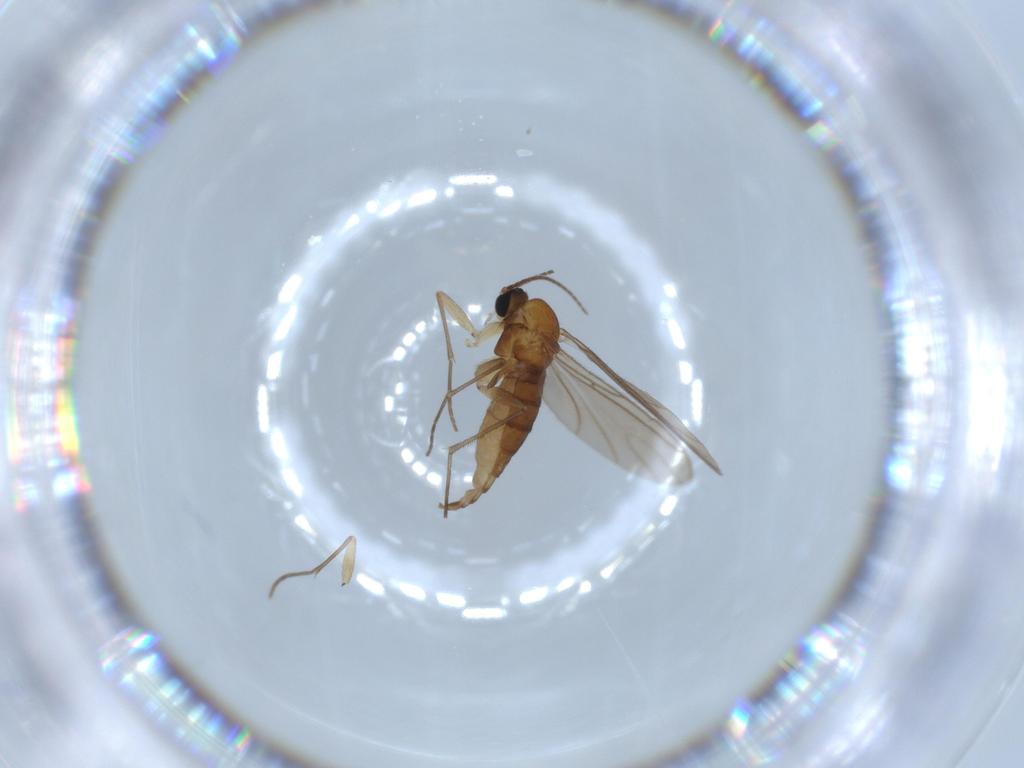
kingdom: Animalia
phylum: Arthropoda
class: Insecta
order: Diptera
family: Sciaridae
